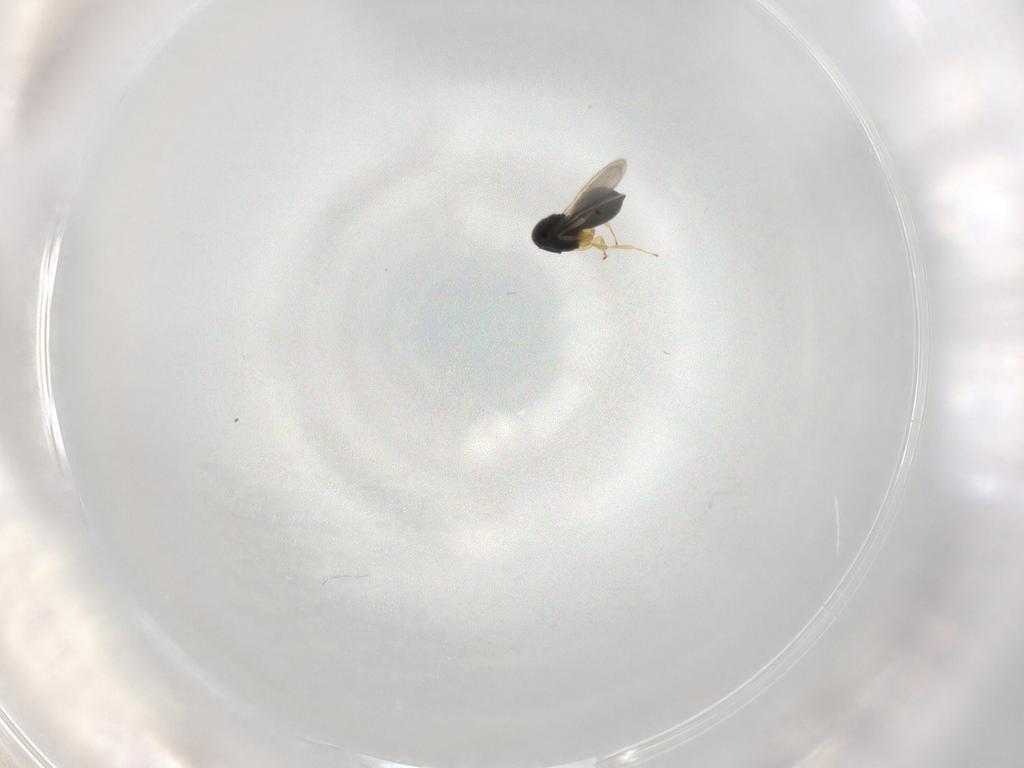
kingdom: Animalia
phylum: Arthropoda
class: Insecta
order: Hymenoptera
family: Scelionidae
